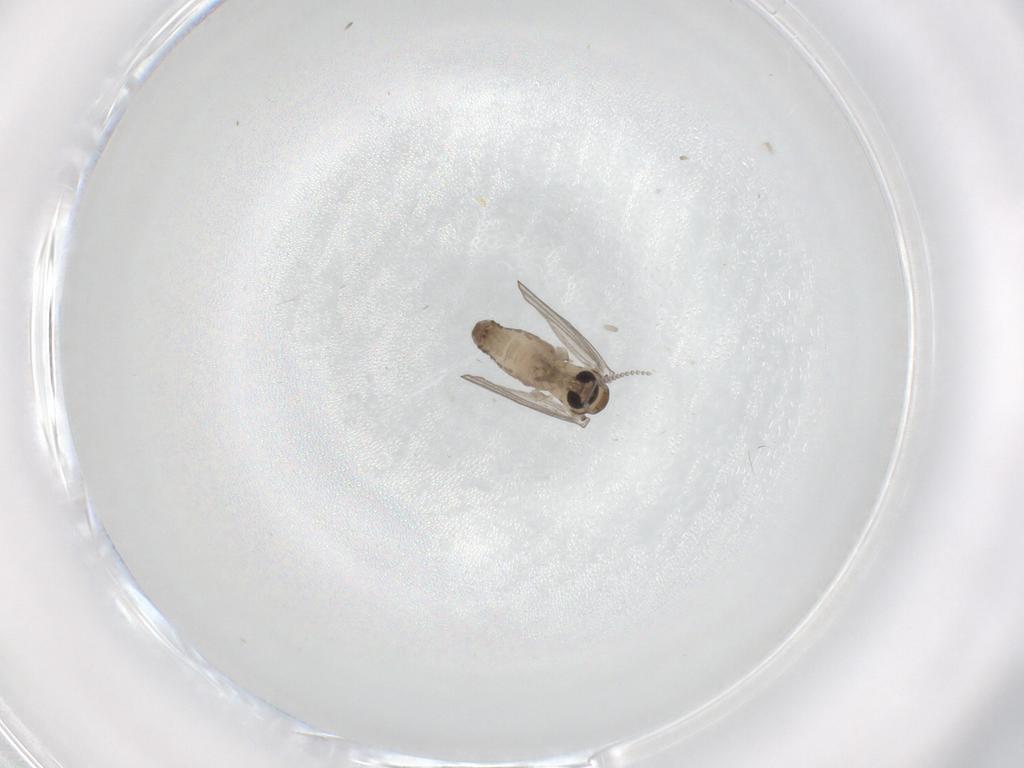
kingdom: Animalia
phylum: Arthropoda
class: Insecta
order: Diptera
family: Psychodidae
